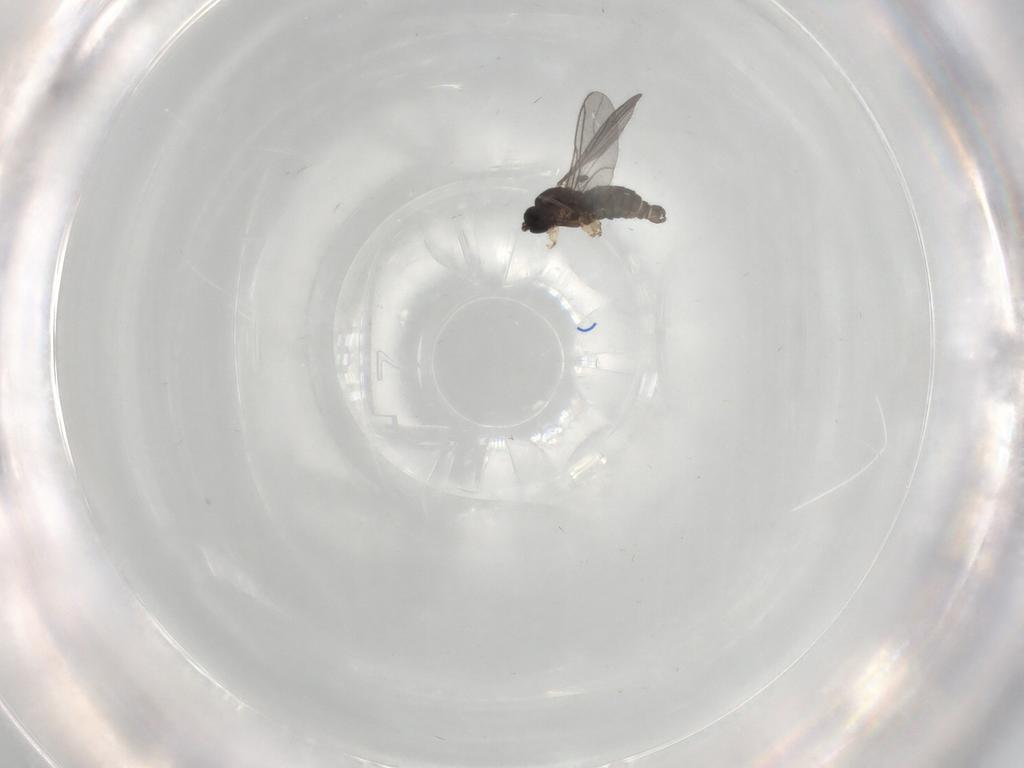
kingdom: Animalia
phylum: Arthropoda
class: Insecta
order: Diptera
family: Sciaridae
